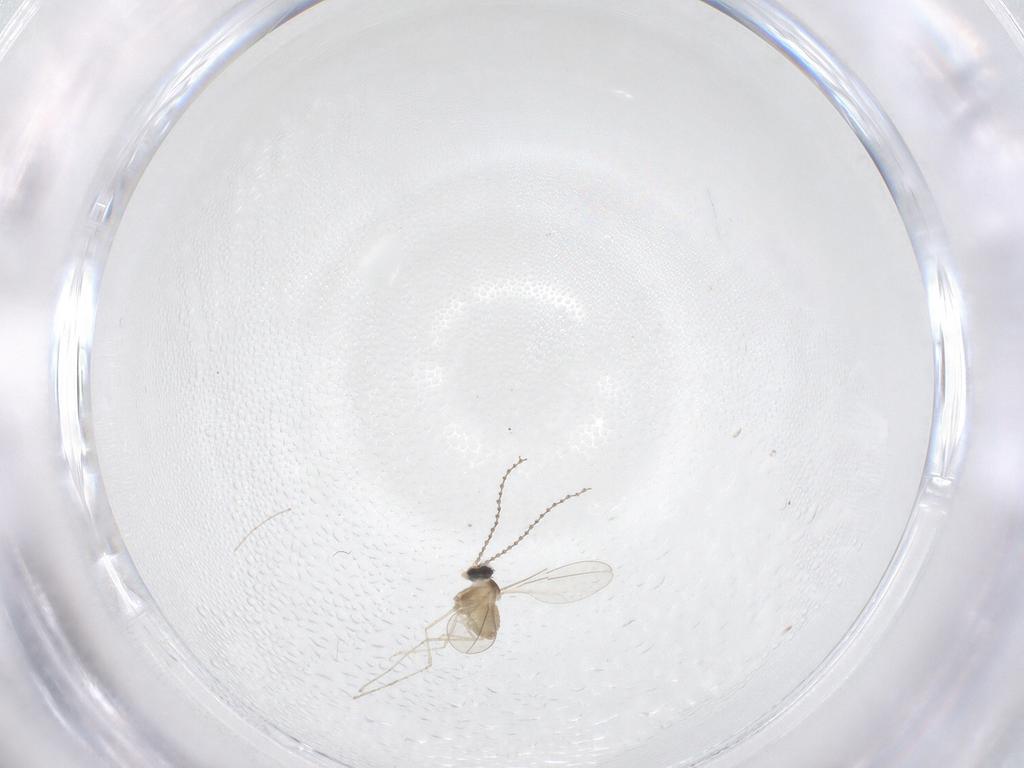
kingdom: Animalia
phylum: Arthropoda
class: Insecta
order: Diptera
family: Cecidomyiidae
